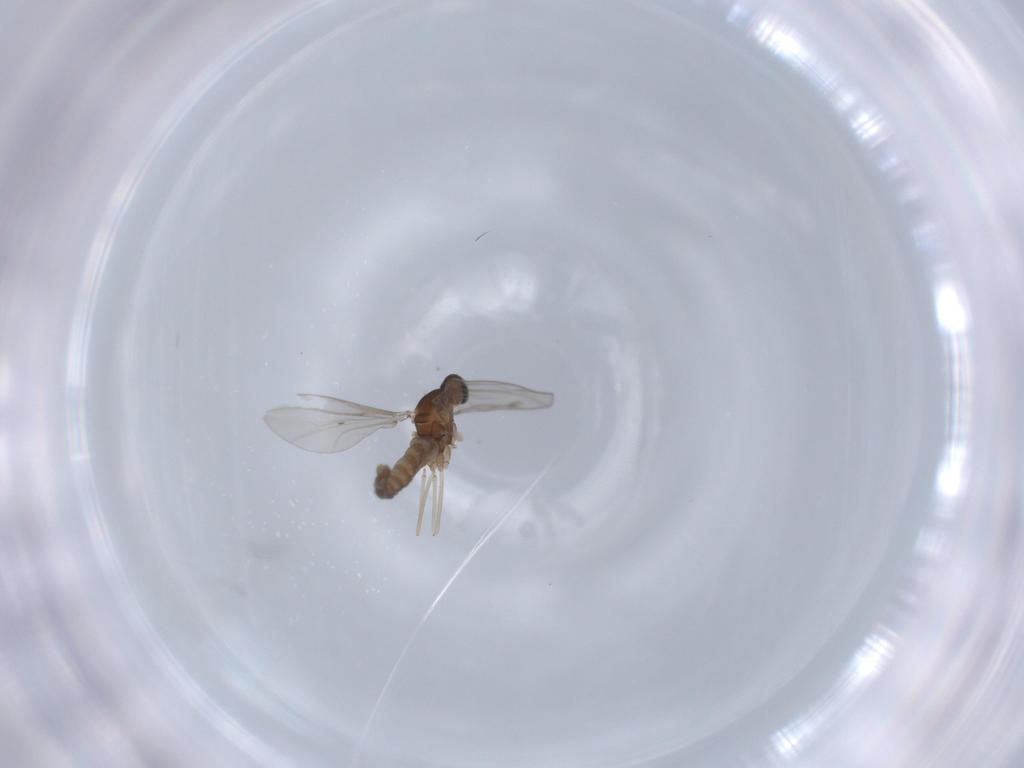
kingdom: Animalia
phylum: Arthropoda
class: Insecta
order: Diptera
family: Cecidomyiidae
